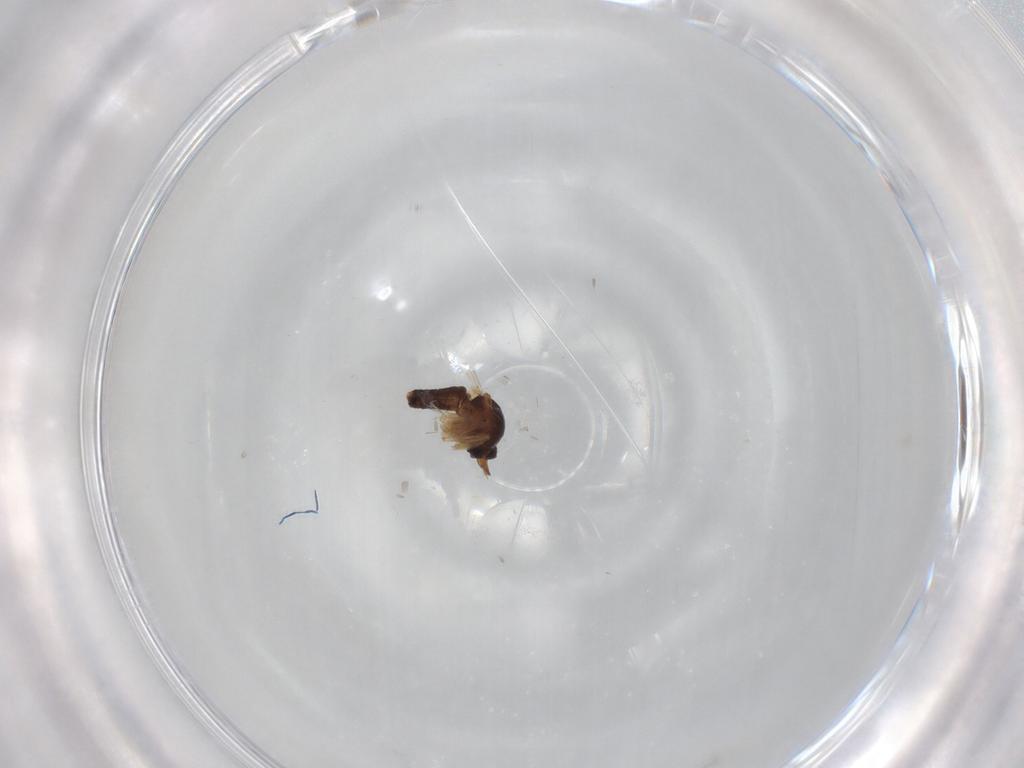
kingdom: Animalia
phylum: Arthropoda
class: Insecta
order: Diptera
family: Ceratopogonidae
